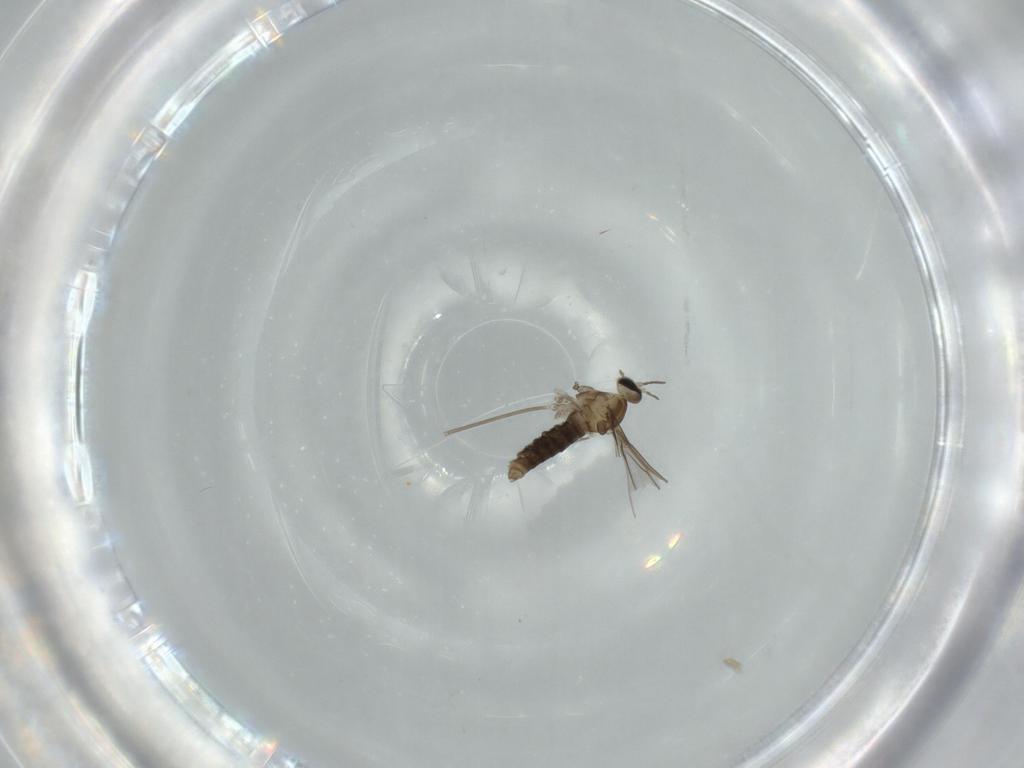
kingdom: Animalia
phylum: Arthropoda
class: Insecta
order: Diptera
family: Cecidomyiidae
